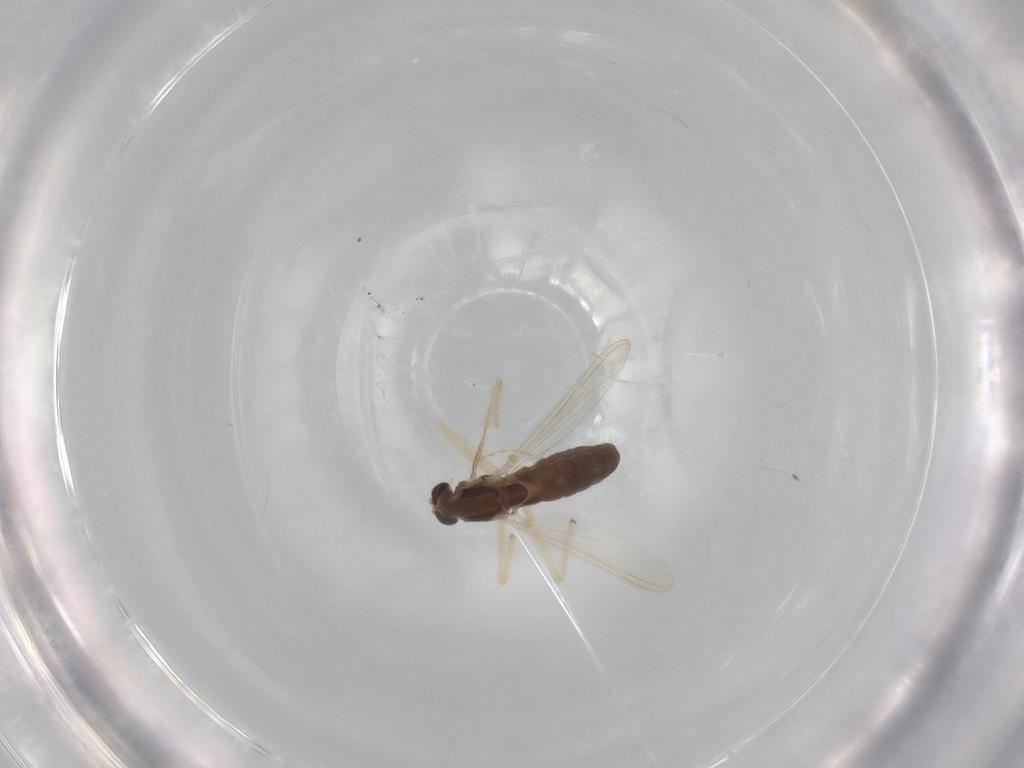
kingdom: Animalia
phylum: Arthropoda
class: Insecta
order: Diptera
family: Chironomidae
